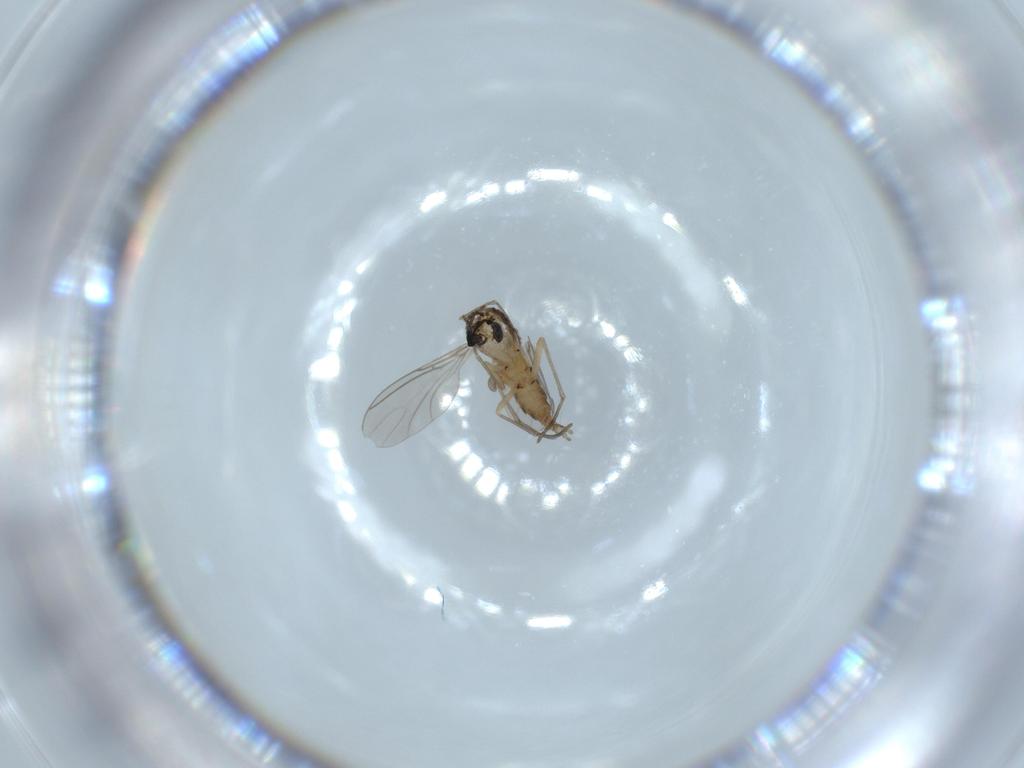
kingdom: Animalia
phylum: Arthropoda
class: Insecta
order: Diptera
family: Sciaridae
